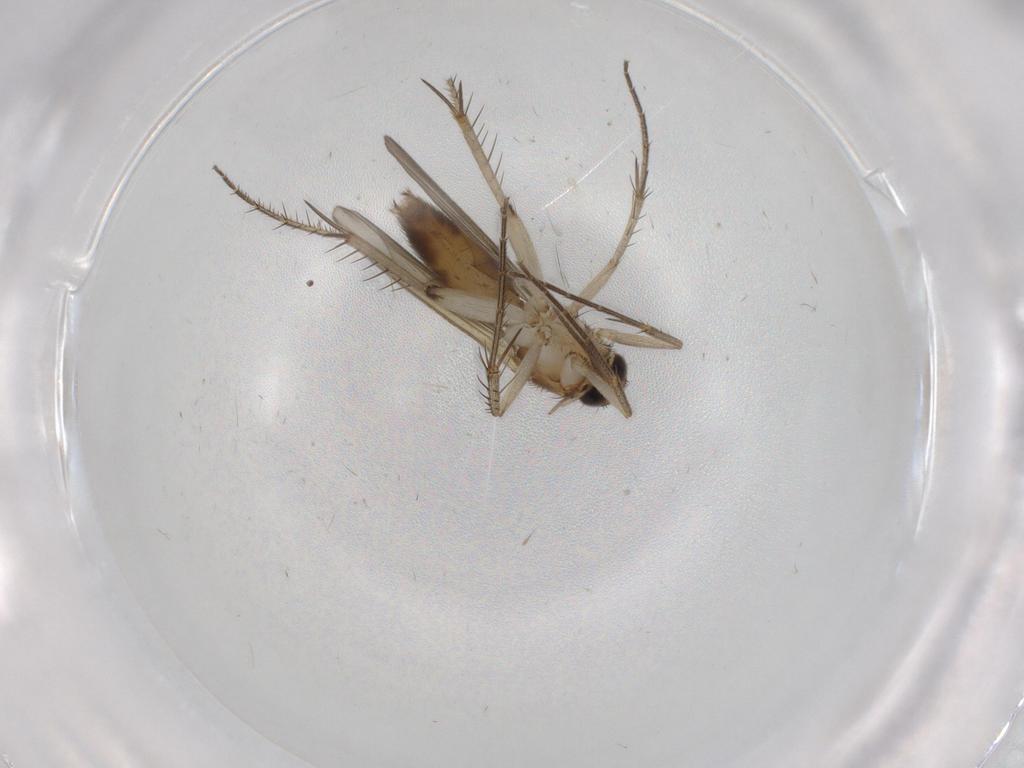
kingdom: Animalia
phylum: Arthropoda
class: Insecta
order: Diptera
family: Mycetophilidae
